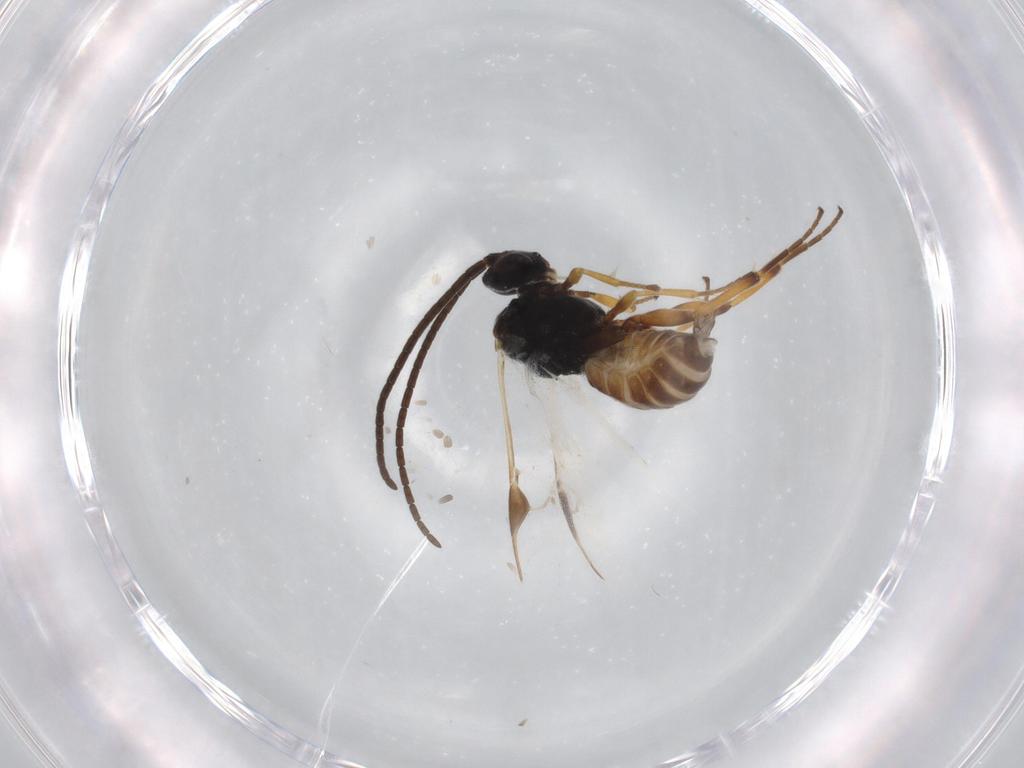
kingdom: Animalia
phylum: Arthropoda
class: Insecta
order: Hymenoptera
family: Braconidae
